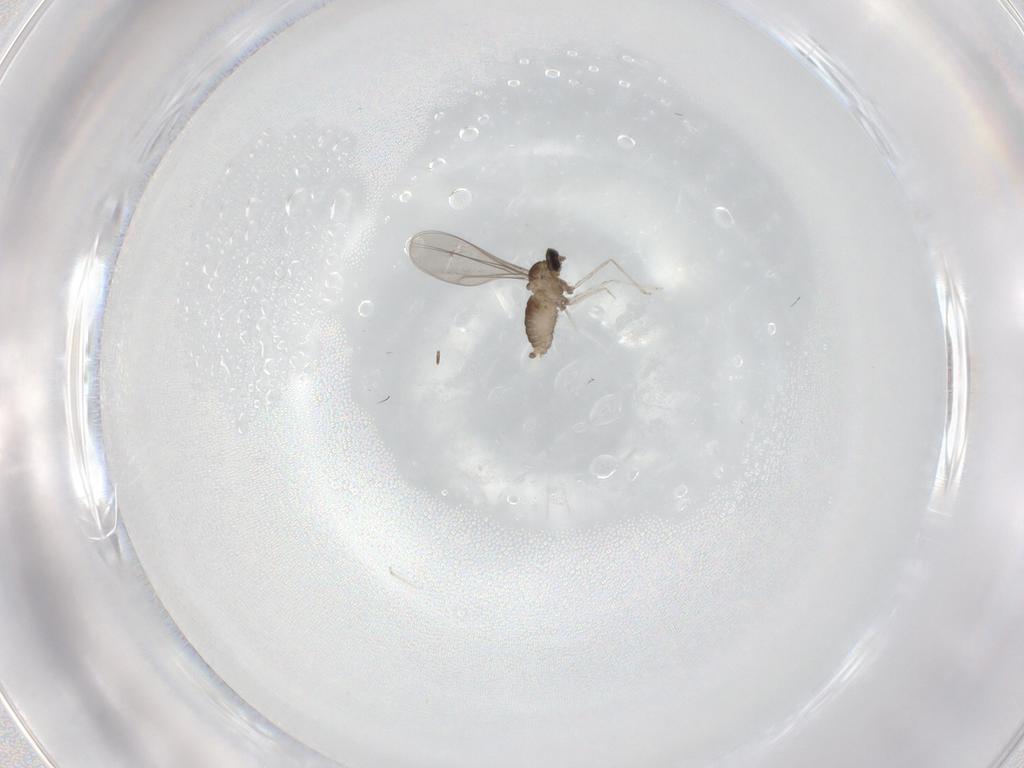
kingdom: Animalia
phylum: Arthropoda
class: Insecta
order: Diptera
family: Cecidomyiidae
